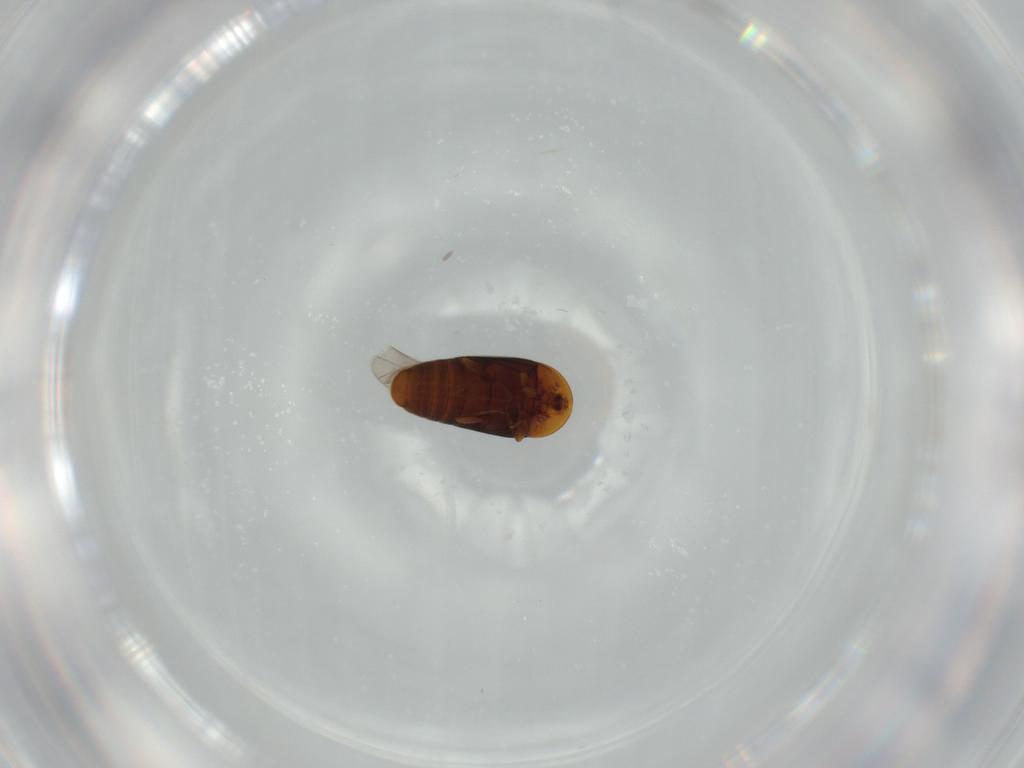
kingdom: Animalia
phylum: Arthropoda
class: Insecta
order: Coleoptera
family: Corylophidae
